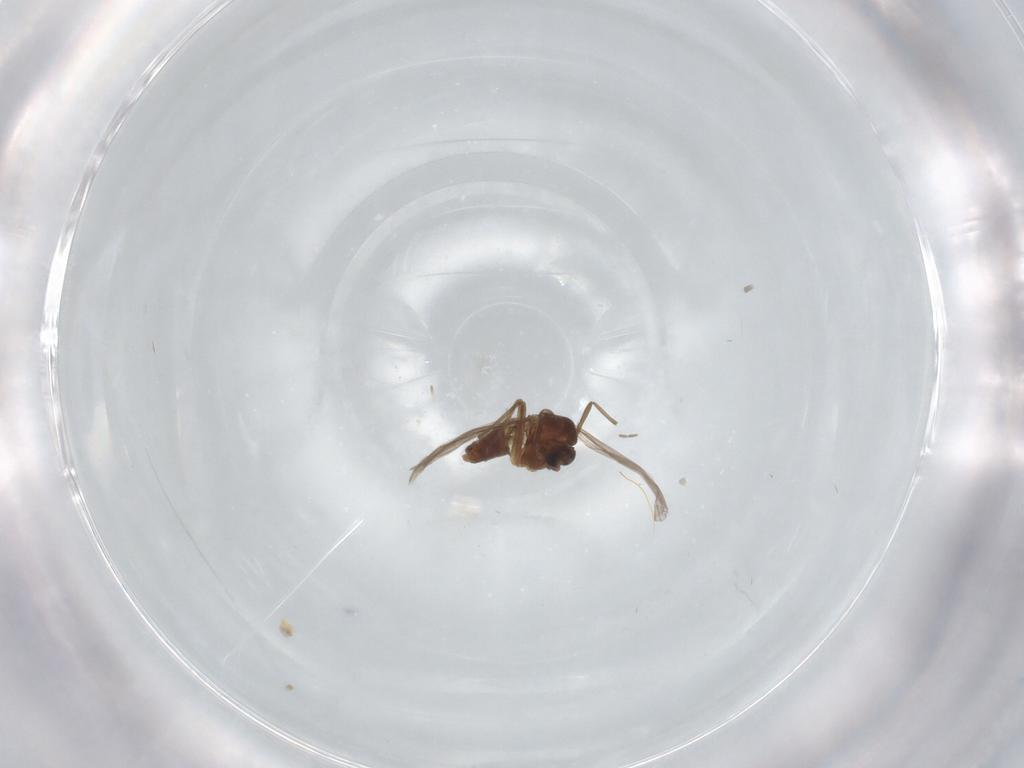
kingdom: Animalia
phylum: Arthropoda
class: Insecta
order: Diptera
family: Chironomidae
